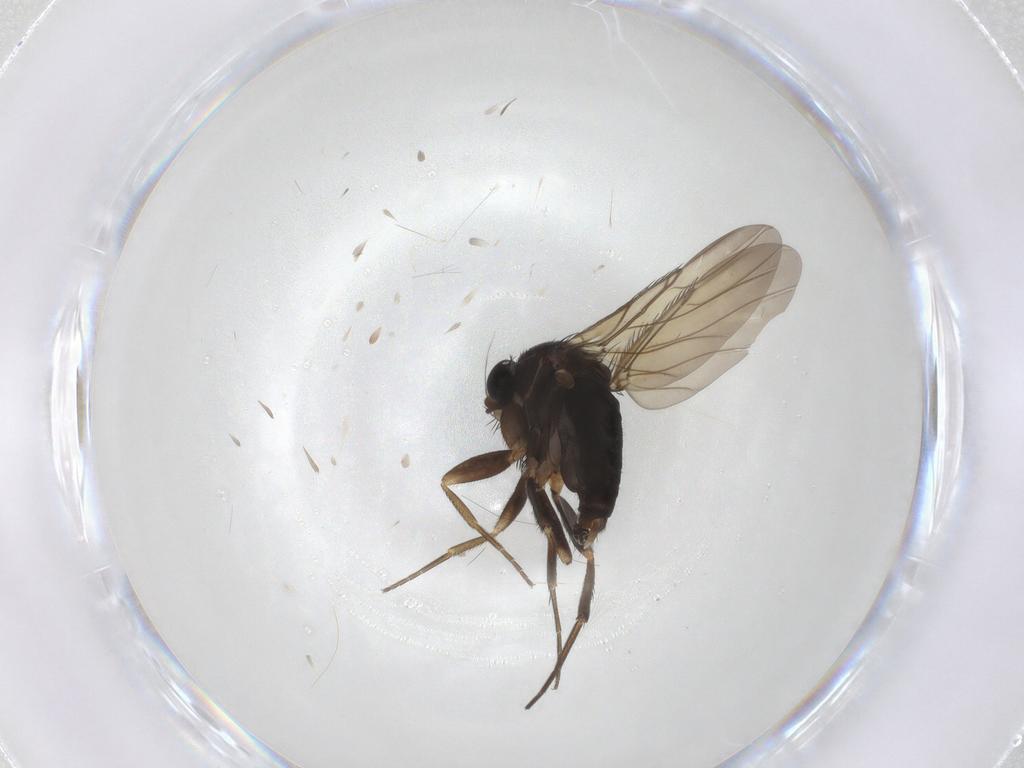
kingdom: Animalia
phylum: Arthropoda
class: Insecta
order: Diptera
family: Phoridae
